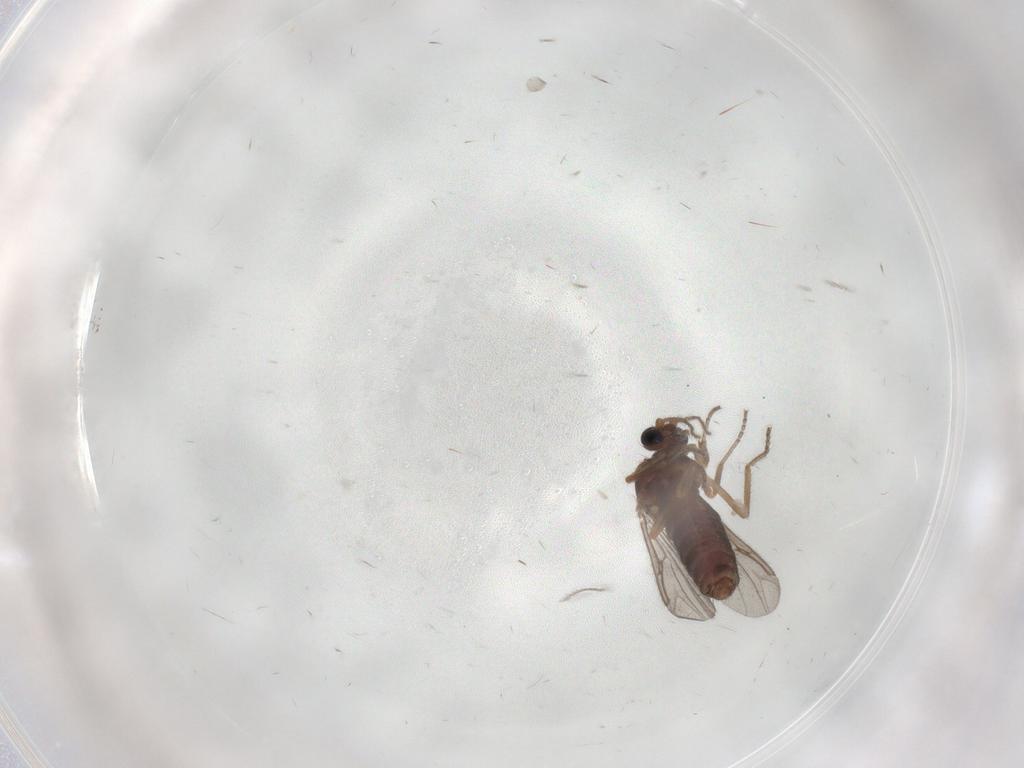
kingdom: Animalia
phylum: Arthropoda
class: Insecta
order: Diptera
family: Ceratopogonidae
